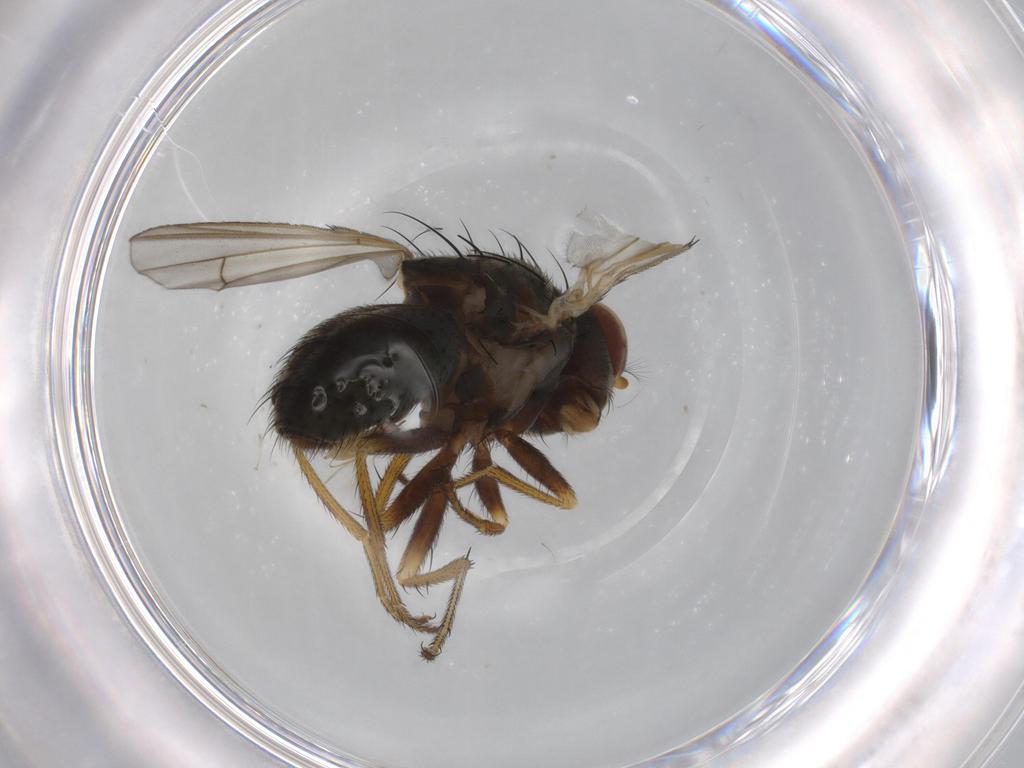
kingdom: Animalia
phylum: Arthropoda
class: Insecta
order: Diptera
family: Ephydridae
